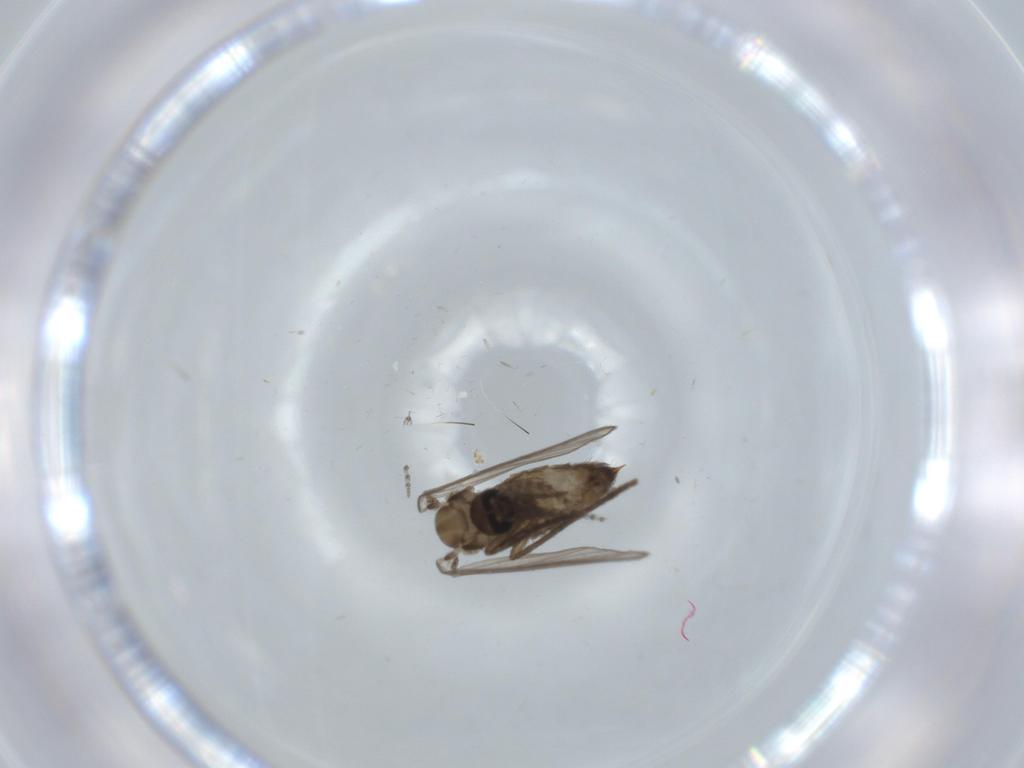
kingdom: Animalia
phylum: Arthropoda
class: Insecta
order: Diptera
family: Psychodidae
